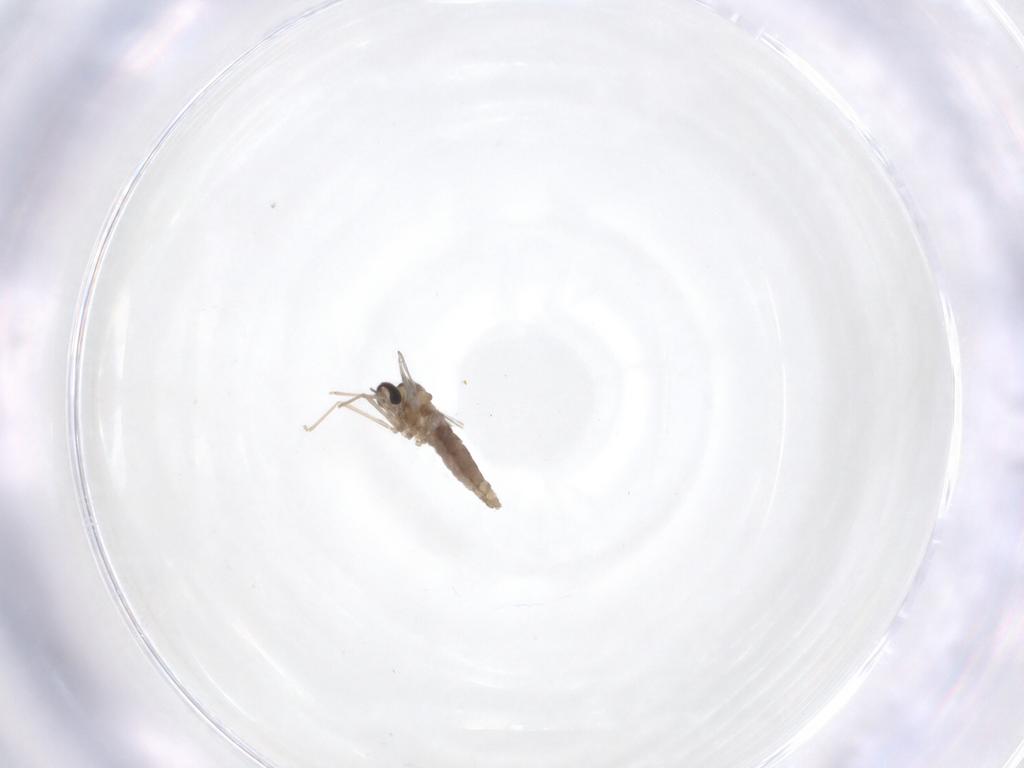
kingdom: Animalia
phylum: Arthropoda
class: Insecta
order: Diptera
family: Cecidomyiidae
